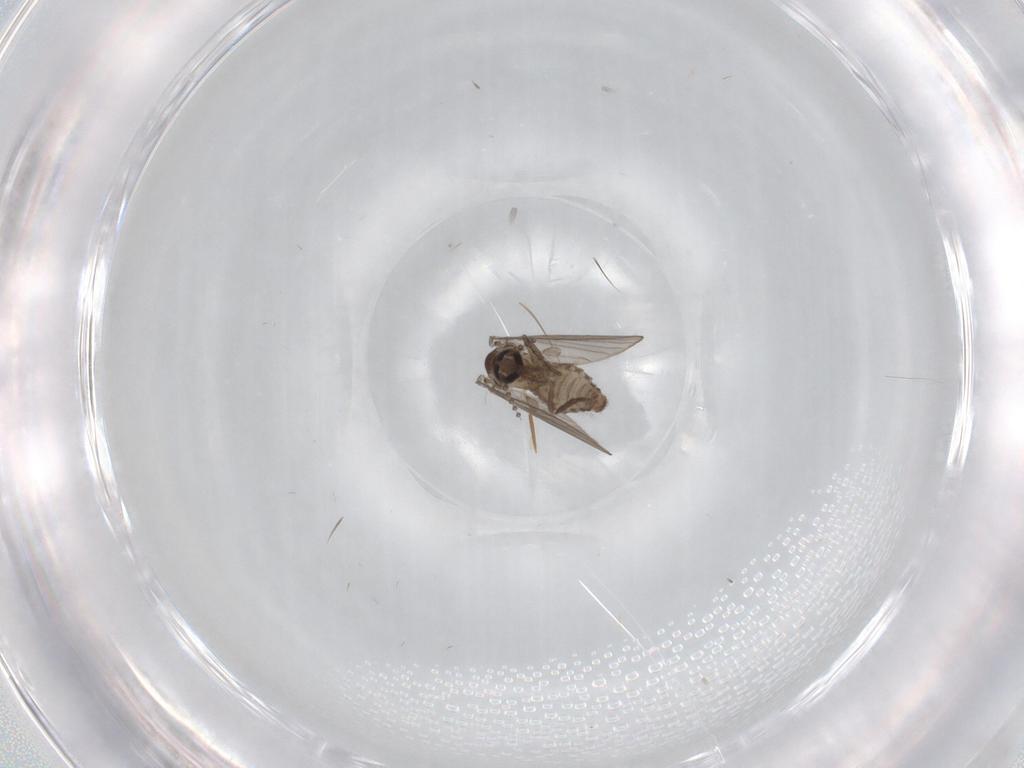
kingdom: Animalia
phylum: Arthropoda
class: Insecta
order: Diptera
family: Psychodidae
